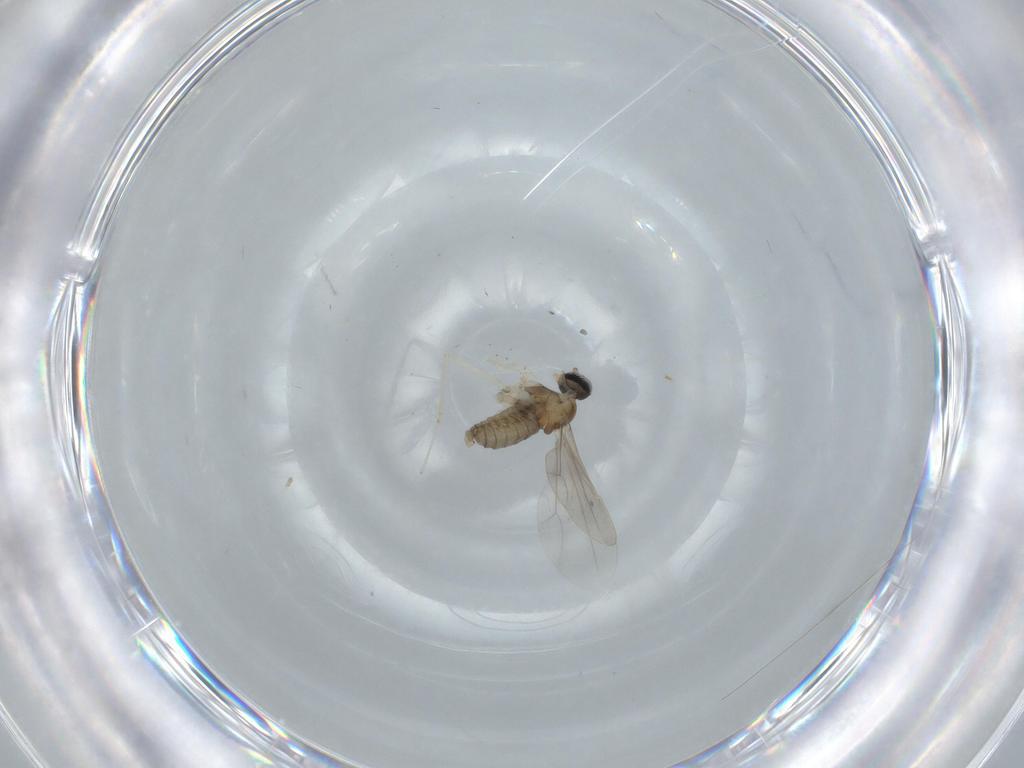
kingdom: Animalia
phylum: Arthropoda
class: Insecta
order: Diptera
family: Cecidomyiidae
